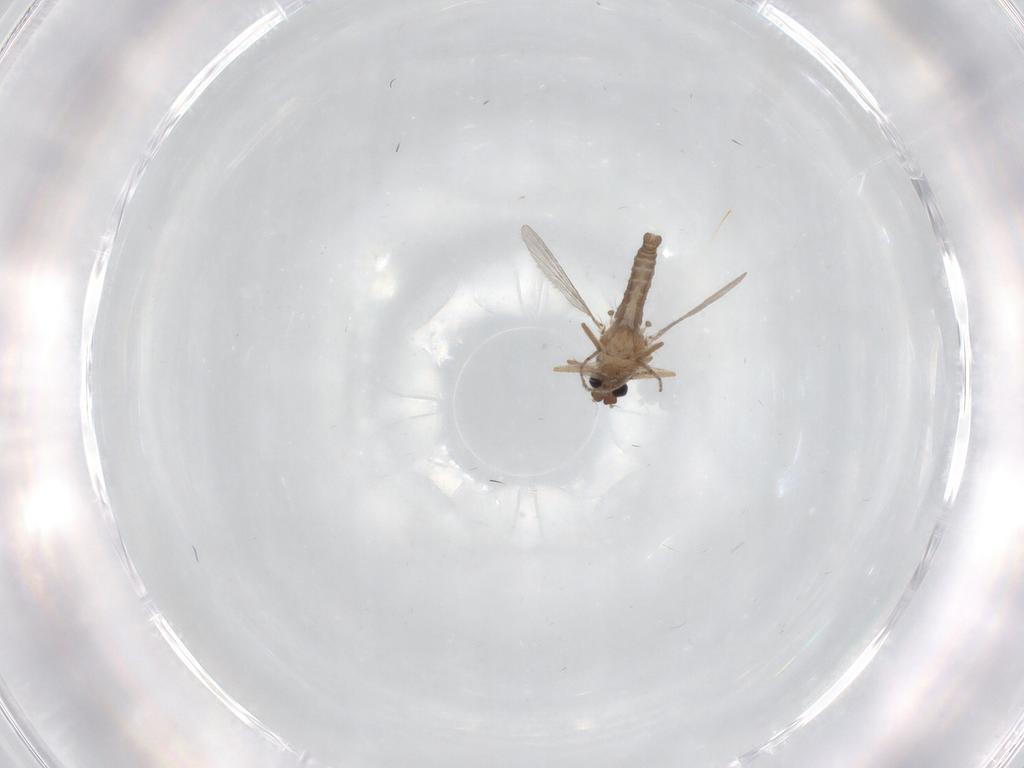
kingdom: Animalia
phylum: Arthropoda
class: Insecta
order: Diptera
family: Ceratopogonidae
